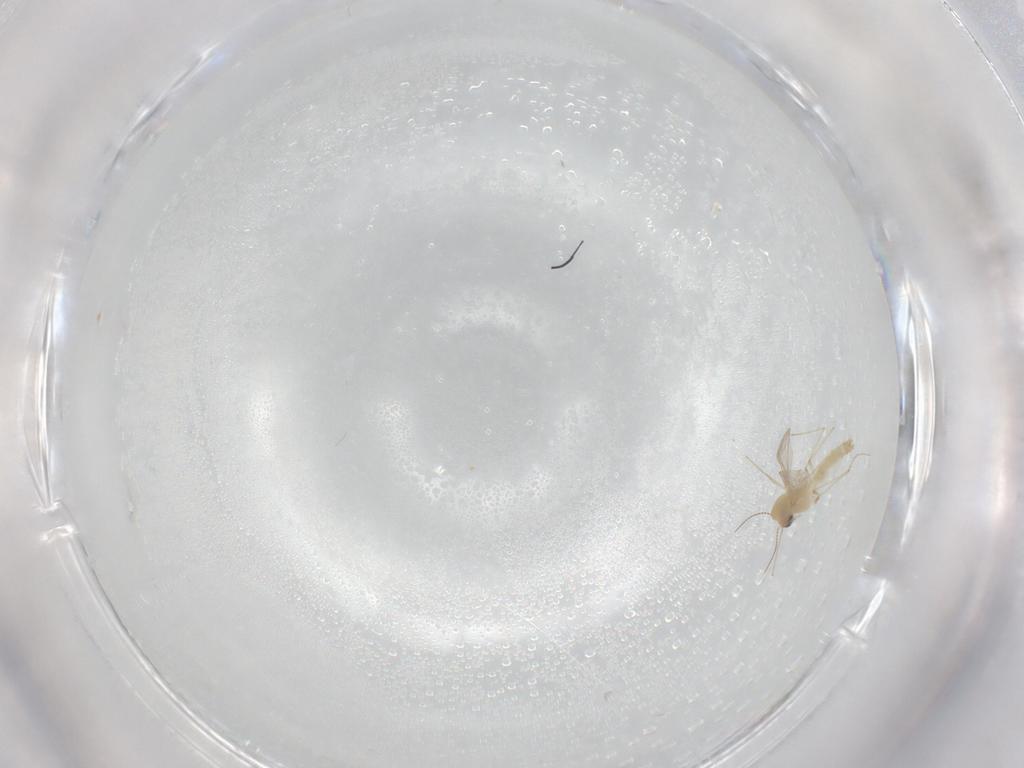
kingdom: Animalia
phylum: Arthropoda
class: Insecta
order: Diptera
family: Chironomidae
